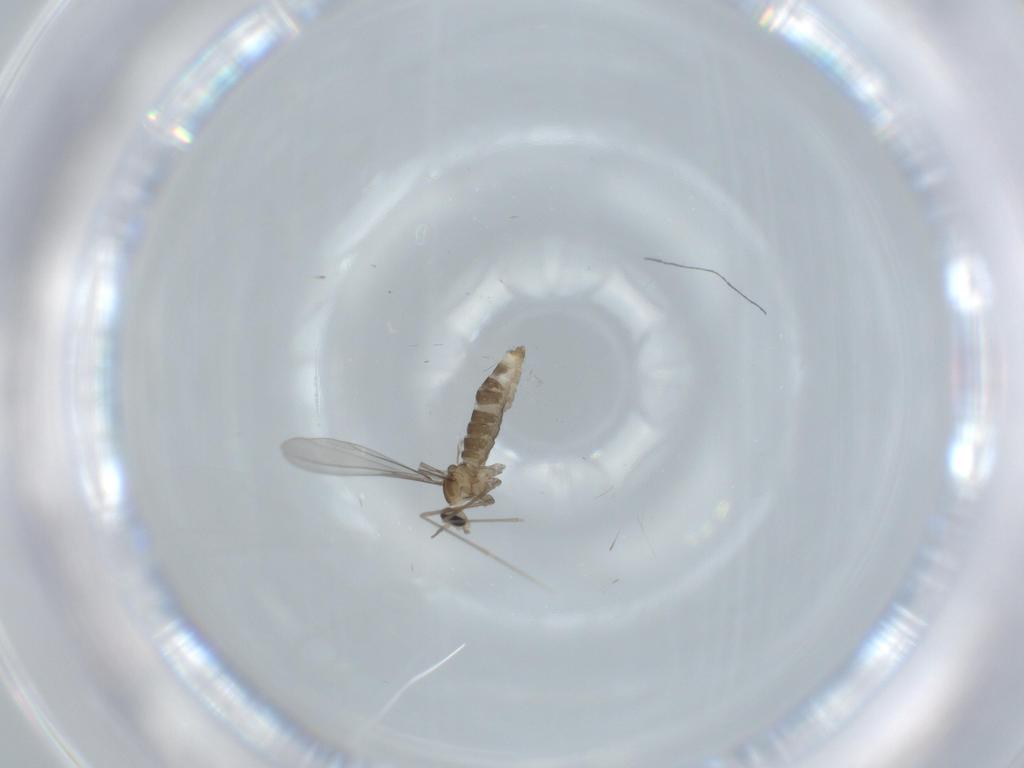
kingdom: Animalia
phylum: Arthropoda
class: Insecta
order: Diptera
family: Cecidomyiidae
